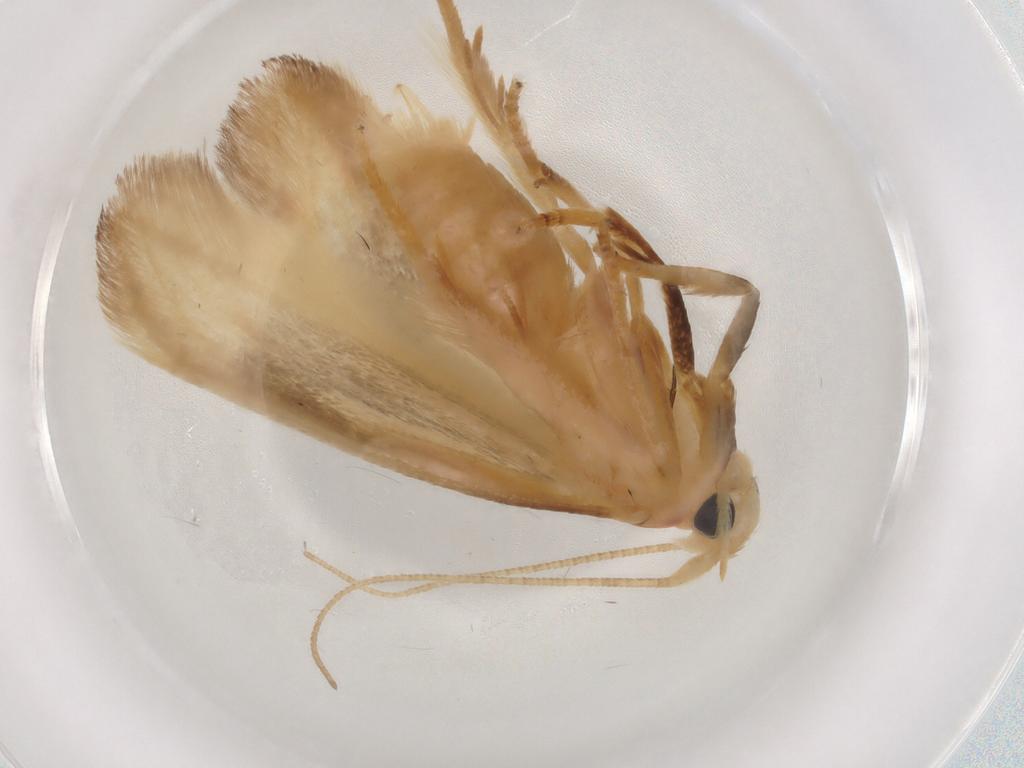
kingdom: Animalia
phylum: Arthropoda
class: Insecta
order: Lepidoptera
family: Geometridae
